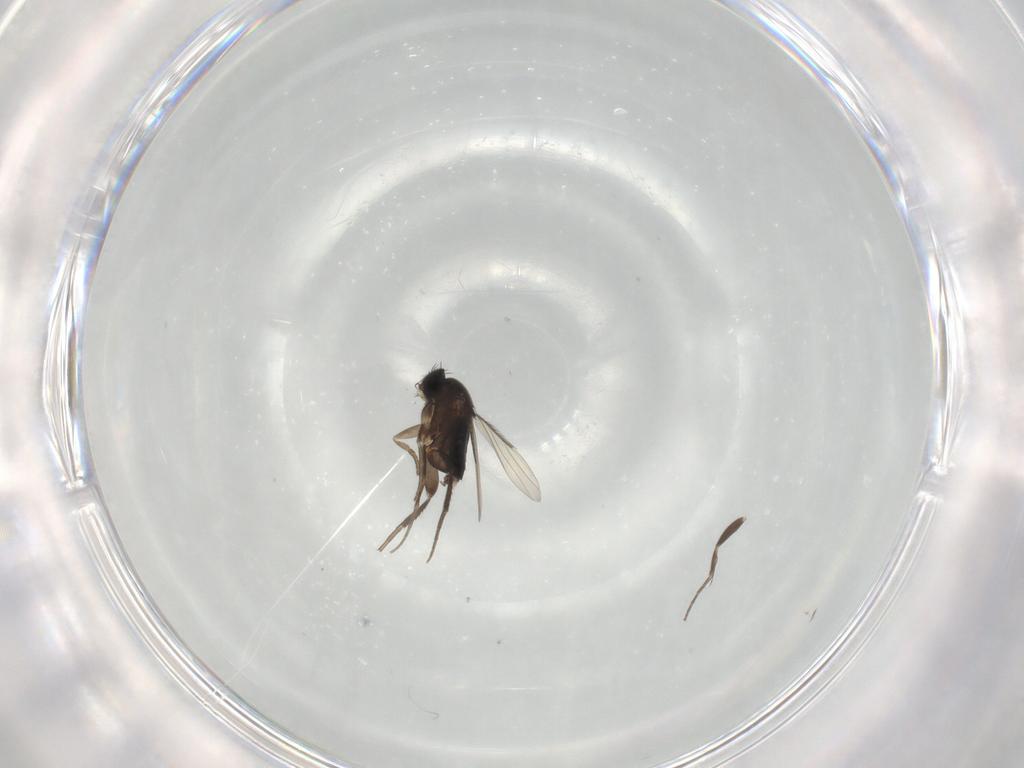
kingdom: Animalia
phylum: Arthropoda
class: Insecta
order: Diptera
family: Phoridae
